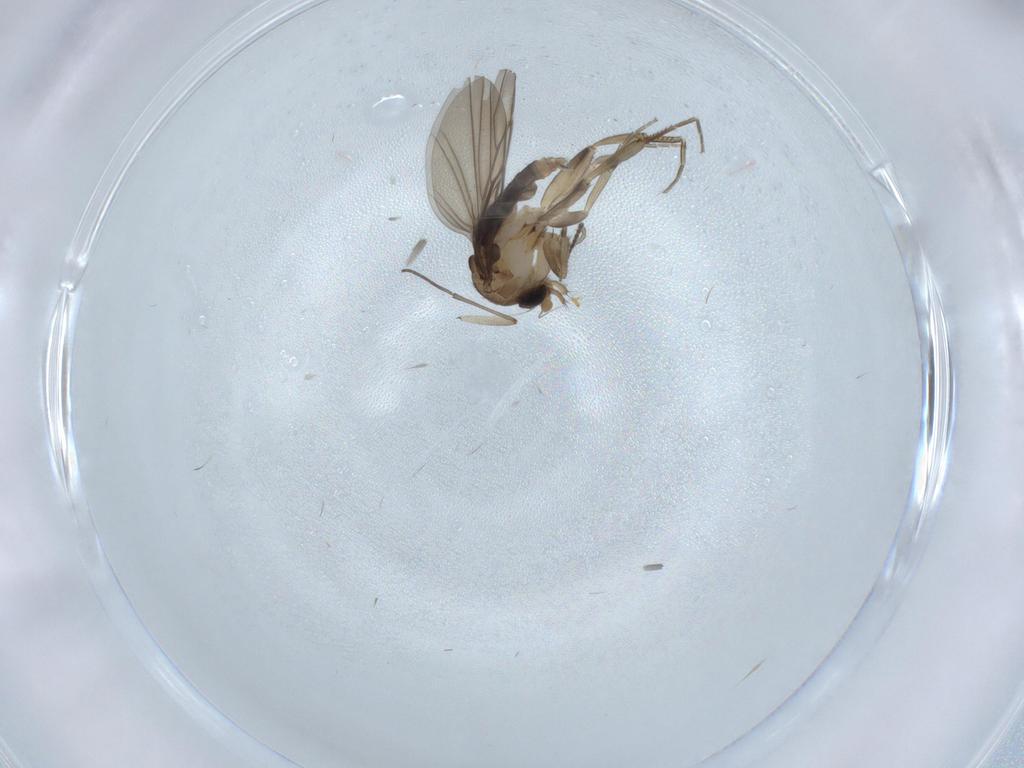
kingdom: Animalia
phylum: Arthropoda
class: Insecta
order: Diptera
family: Phoridae
